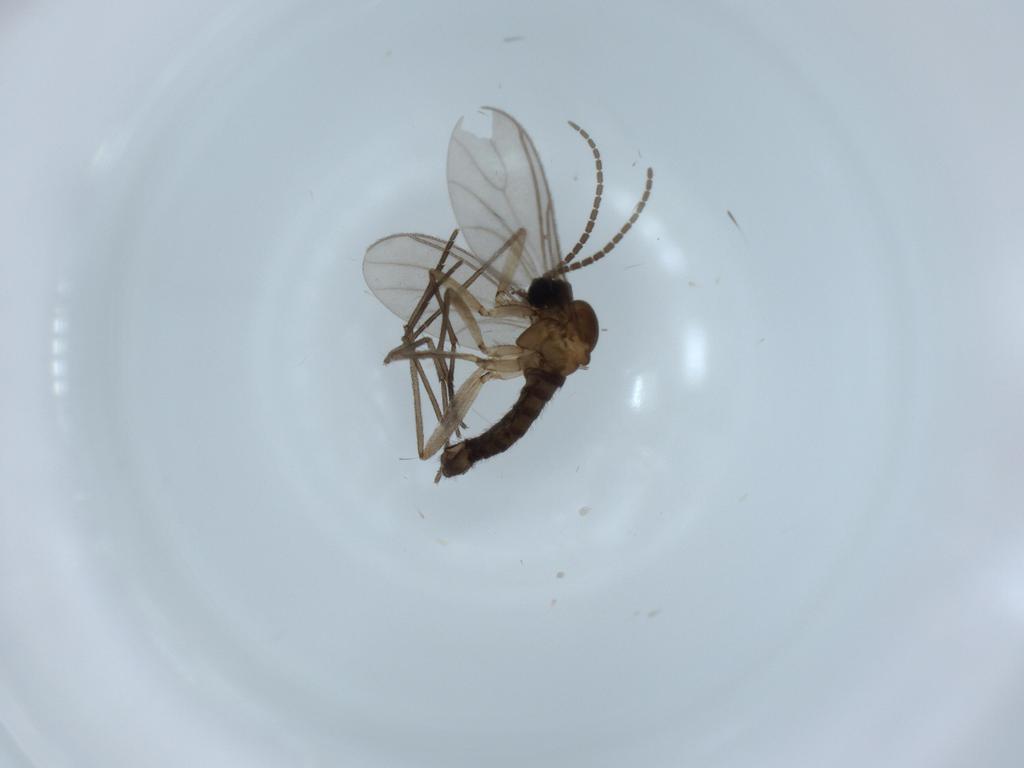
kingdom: Animalia
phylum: Arthropoda
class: Insecta
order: Diptera
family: Sciaridae
